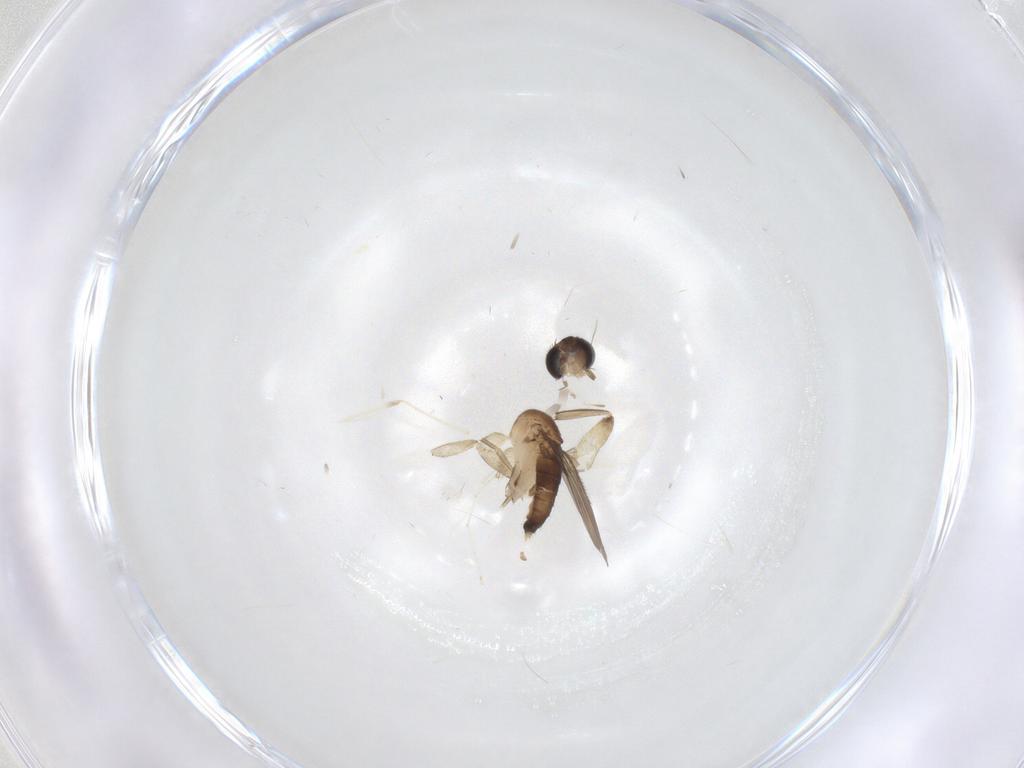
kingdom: Animalia
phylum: Arthropoda
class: Insecta
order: Diptera
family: Phoridae
